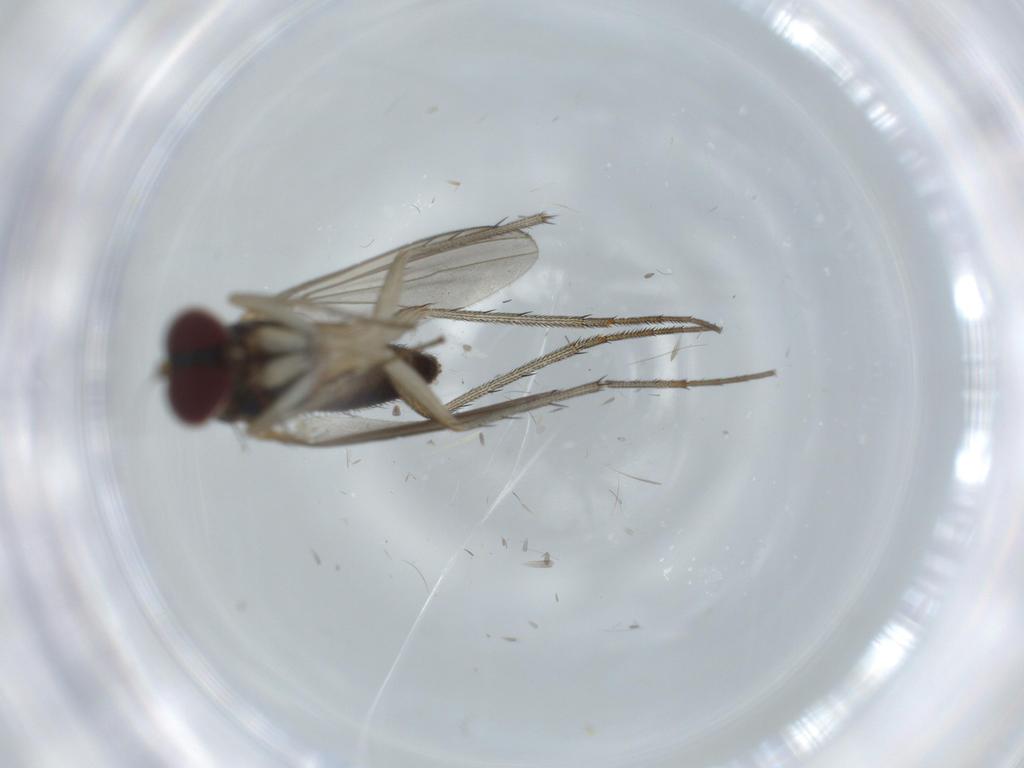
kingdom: Animalia
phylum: Arthropoda
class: Insecta
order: Diptera
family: Dolichopodidae
